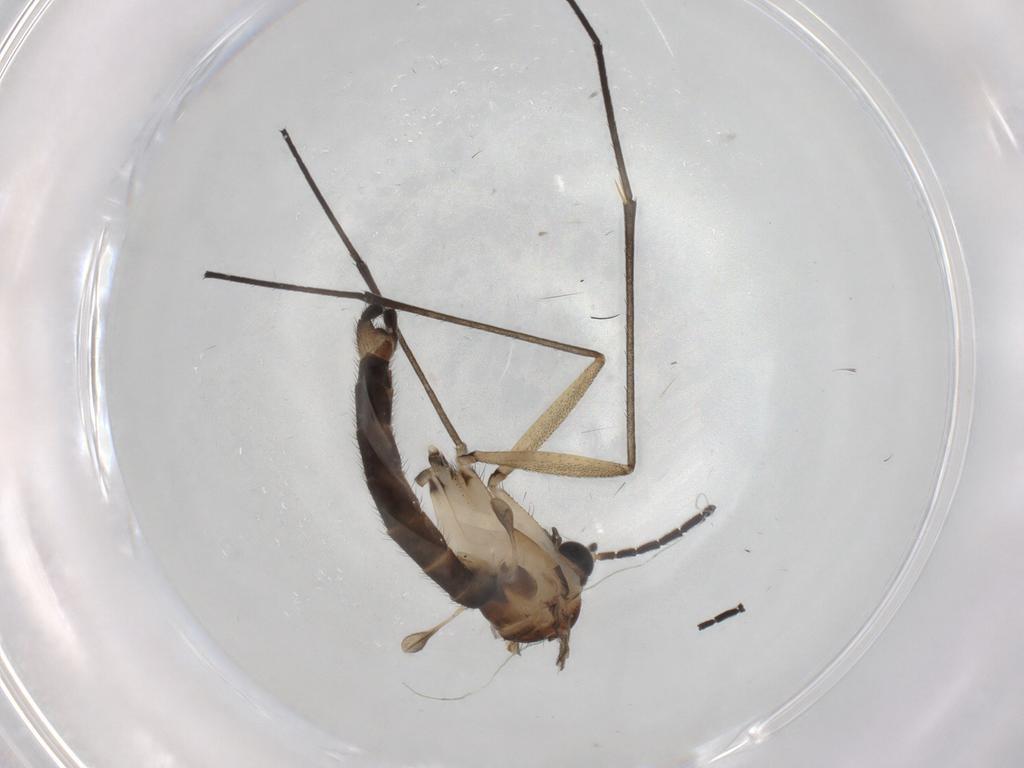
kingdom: Animalia
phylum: Arthropoda
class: Insecta
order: Diptera
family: Sciaridae
